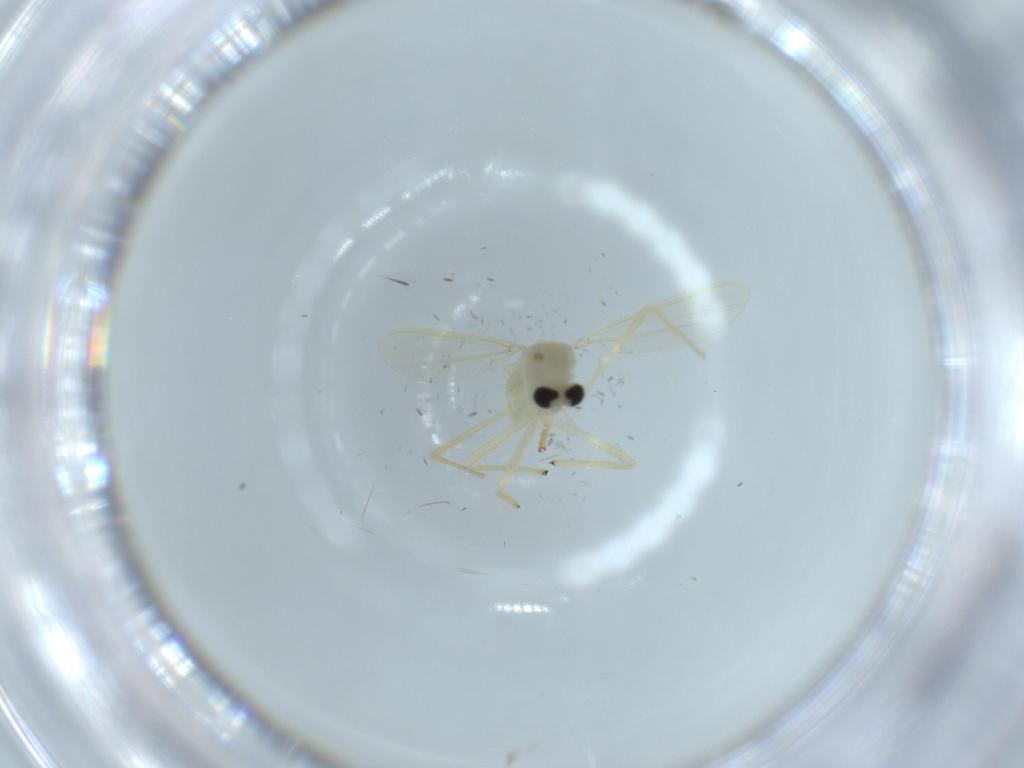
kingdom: Animalia
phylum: Arthropoda
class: Insecta
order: Diptera
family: Chironomidae
